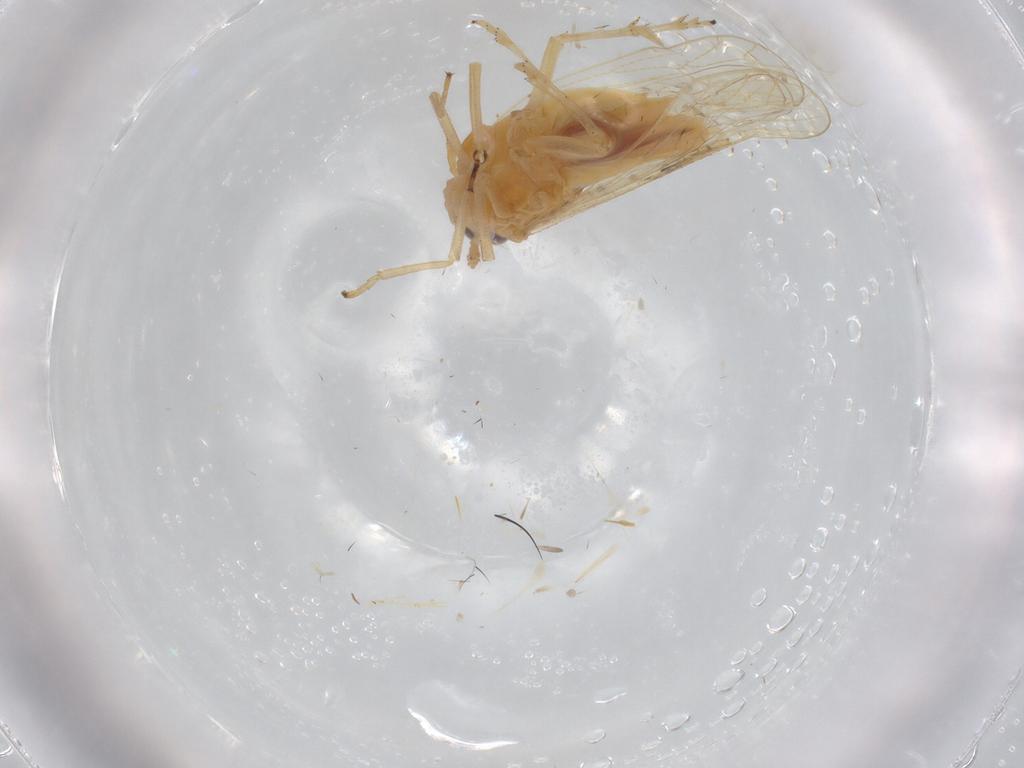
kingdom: Animalia
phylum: Arthropoda
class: Insecta
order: Hemiptera
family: Delphacidae
